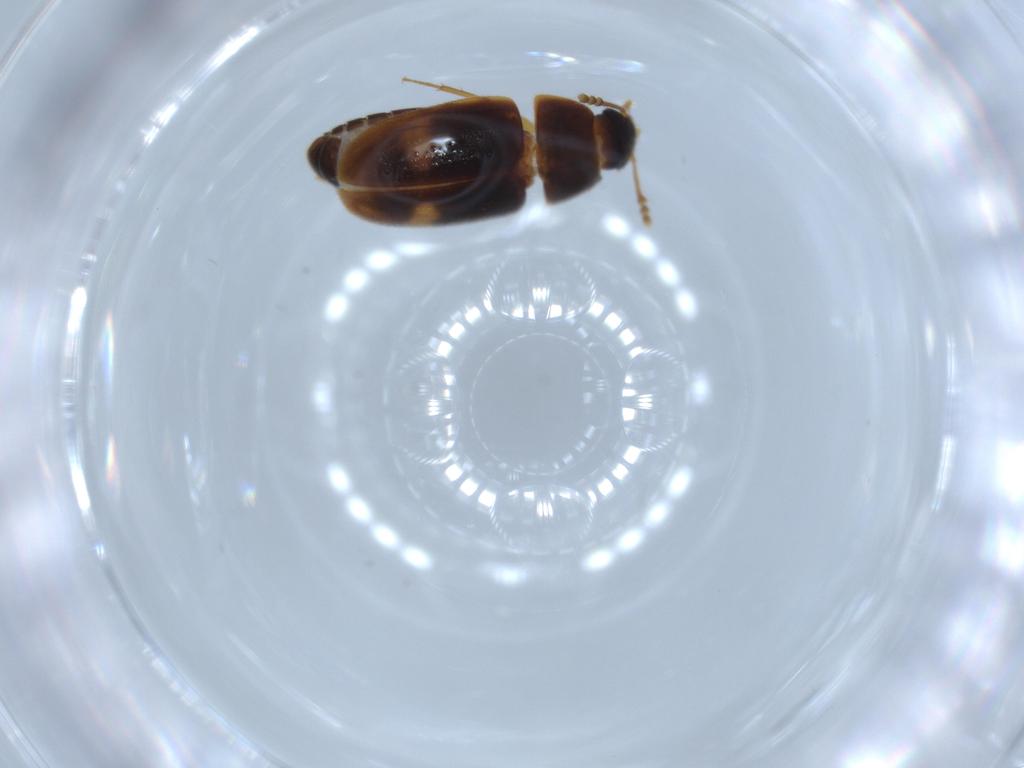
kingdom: Animalia
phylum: Arthropoda
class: Insecta
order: Coleoptera
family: Mycetophagidae
